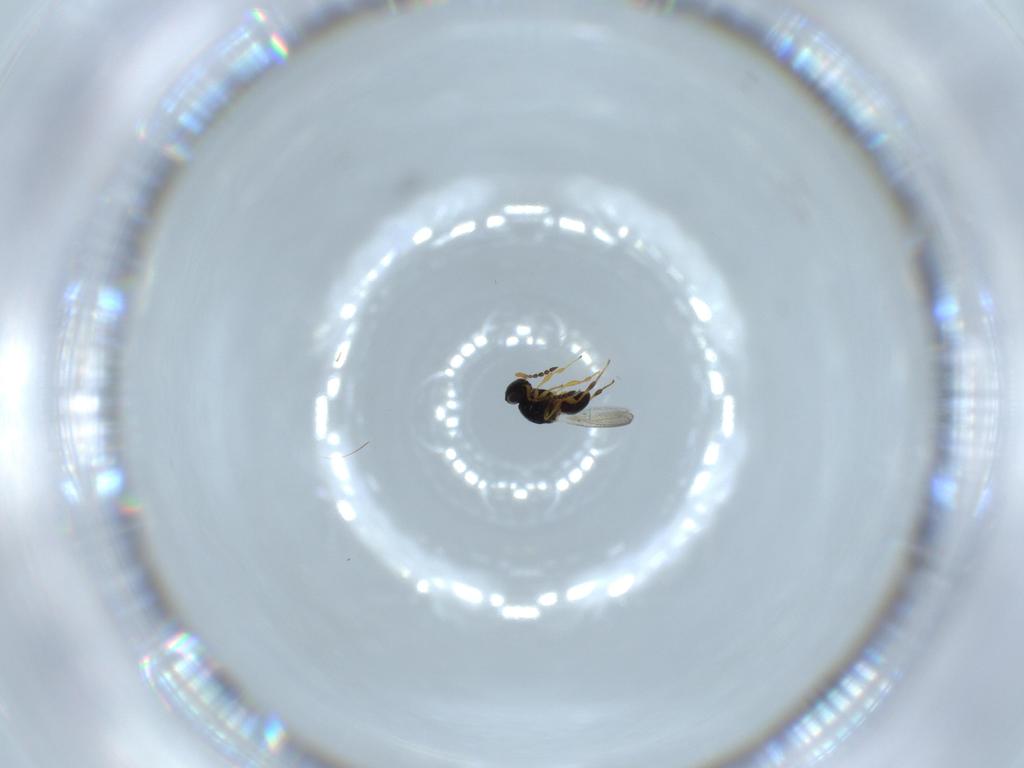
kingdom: Animalia
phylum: Arthropoda
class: Insecta
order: Hymenoptera
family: Platygastridae
